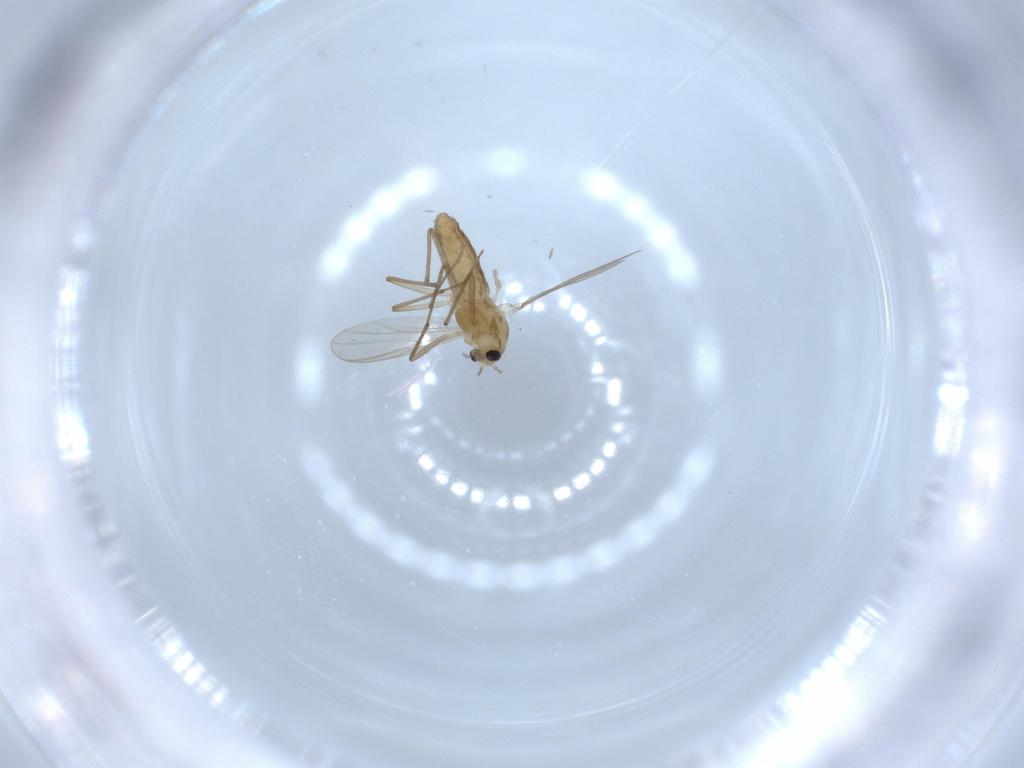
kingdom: Animalia
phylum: Arthropoda
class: Insecta
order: Diptera
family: Chironomidae
